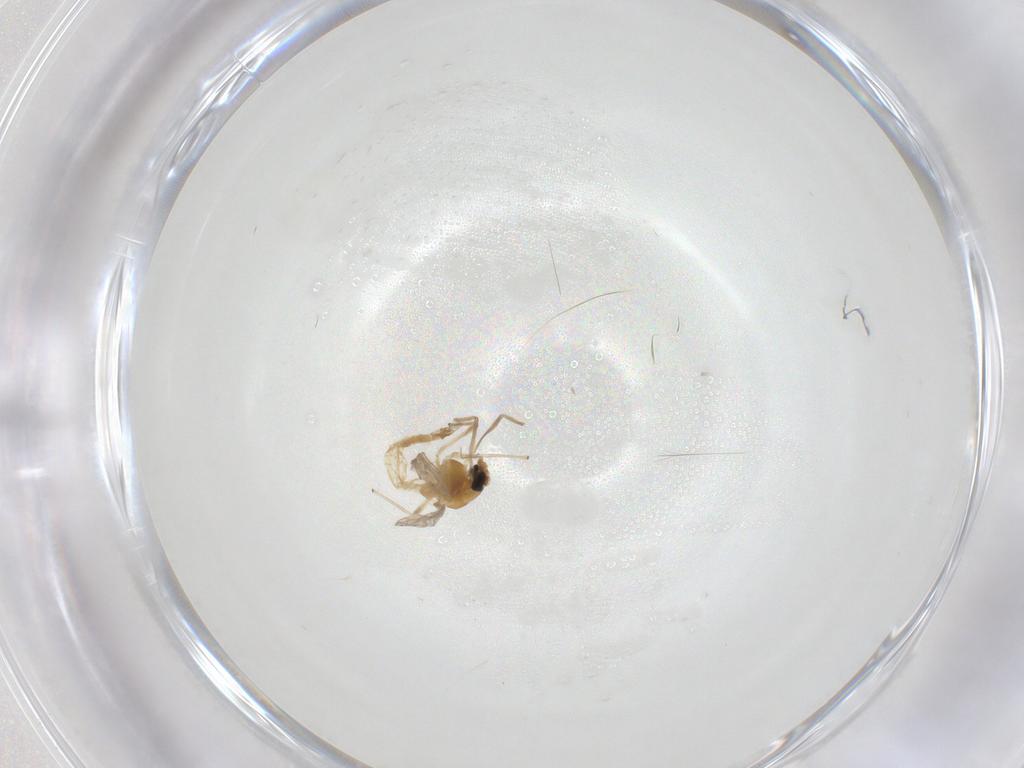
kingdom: Animalia
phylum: Arthropoda
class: Insecta
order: Diptera
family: Chironomidae
